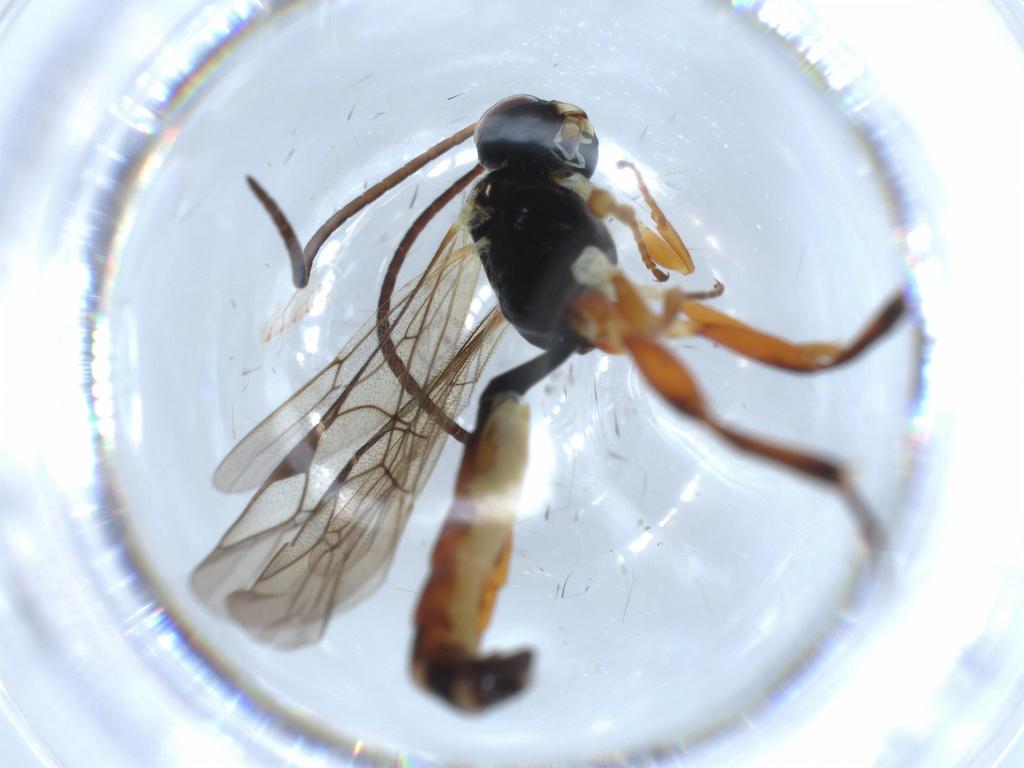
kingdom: Animalia
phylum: Arthropoda
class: Insecta
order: Hymenoptera
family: Ichneumonidae
